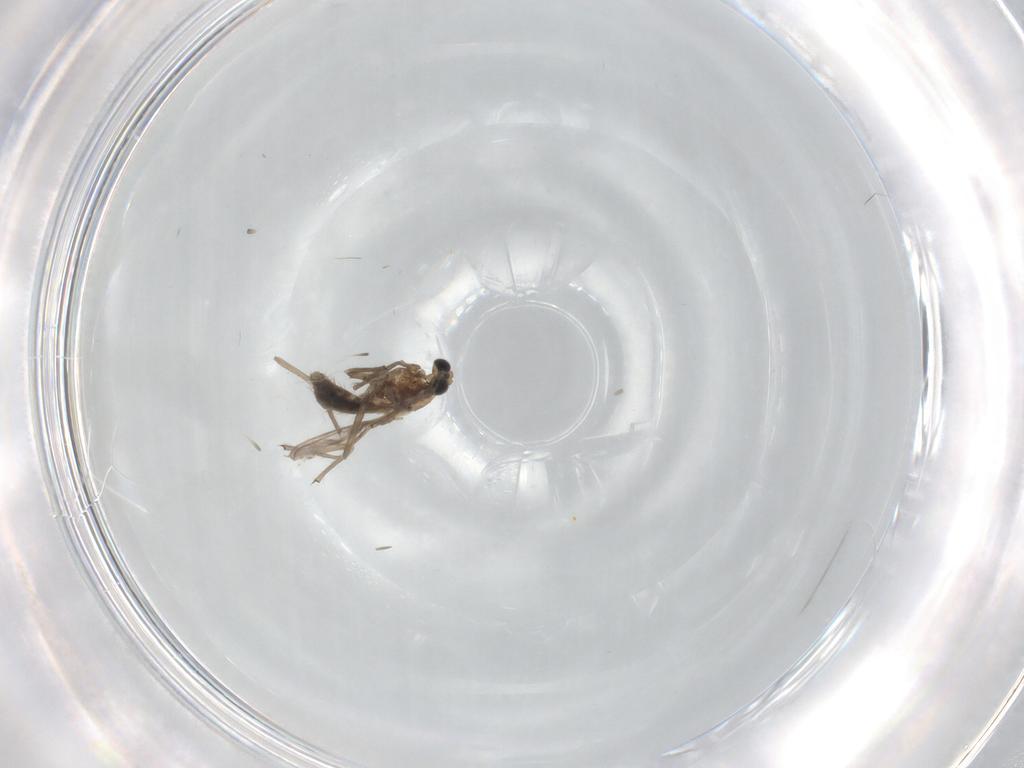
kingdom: Animalia
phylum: Arthropoda
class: Insecta
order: Diptera
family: Sciaridae
